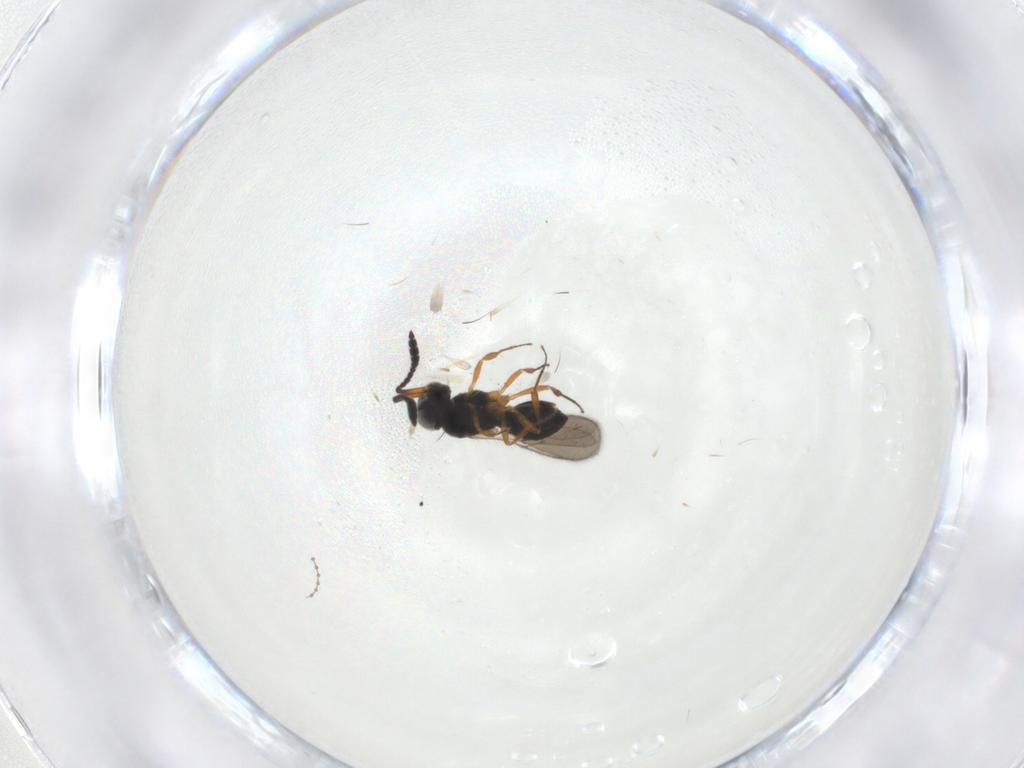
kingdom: Animalia
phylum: Arthropoda
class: Insecta
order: Hymenoptera
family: Scelionidae
